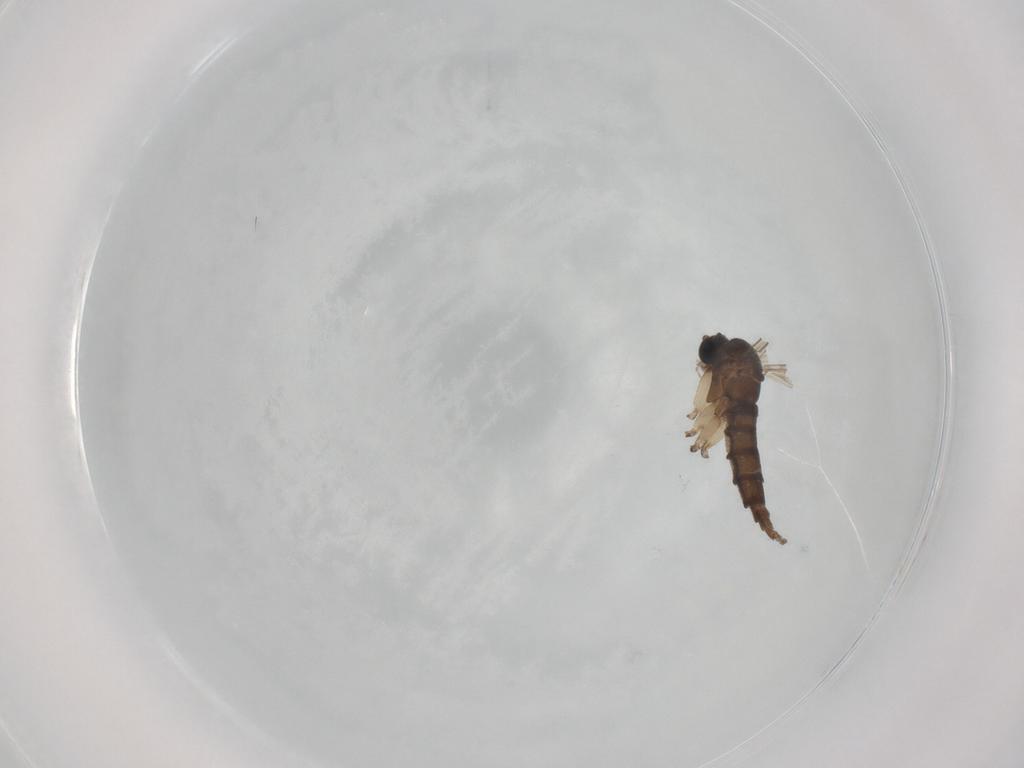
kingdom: Animalia
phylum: Arthropoda
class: Insecta
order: Diptera
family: Sciaridae
